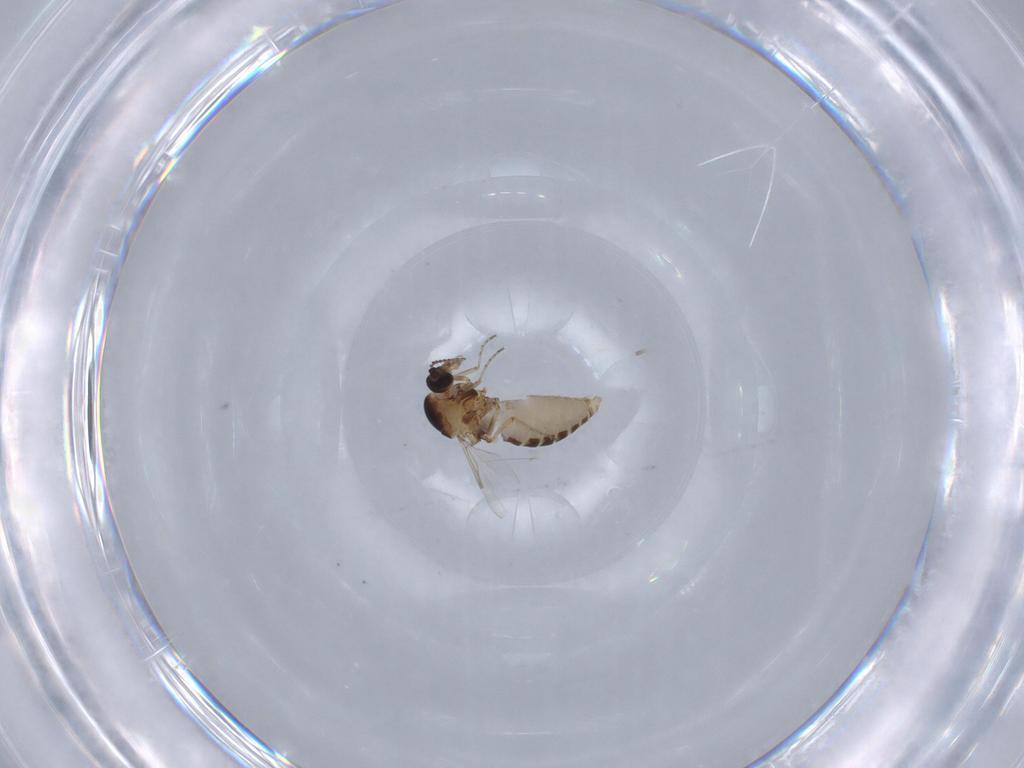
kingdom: Animalia
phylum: Arthropoda
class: Insecta
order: Diptera
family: Ceratopogonidae
